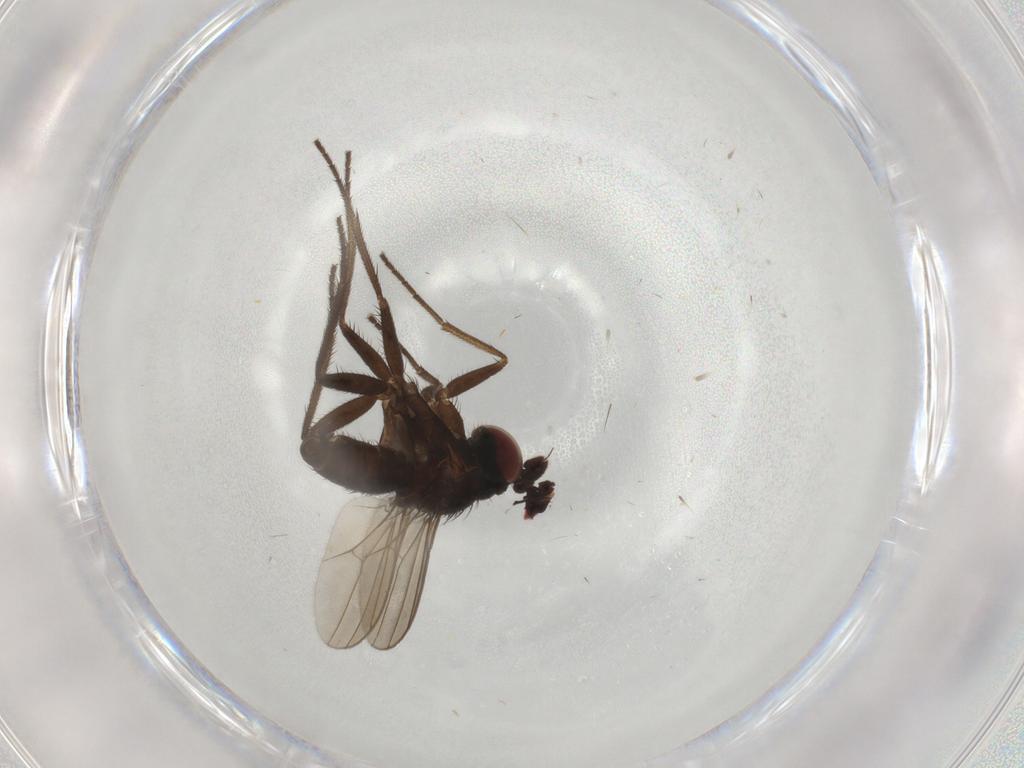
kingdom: Animalia
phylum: Arthropoda
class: Insecta
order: Diptera
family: Dolichopodidae
